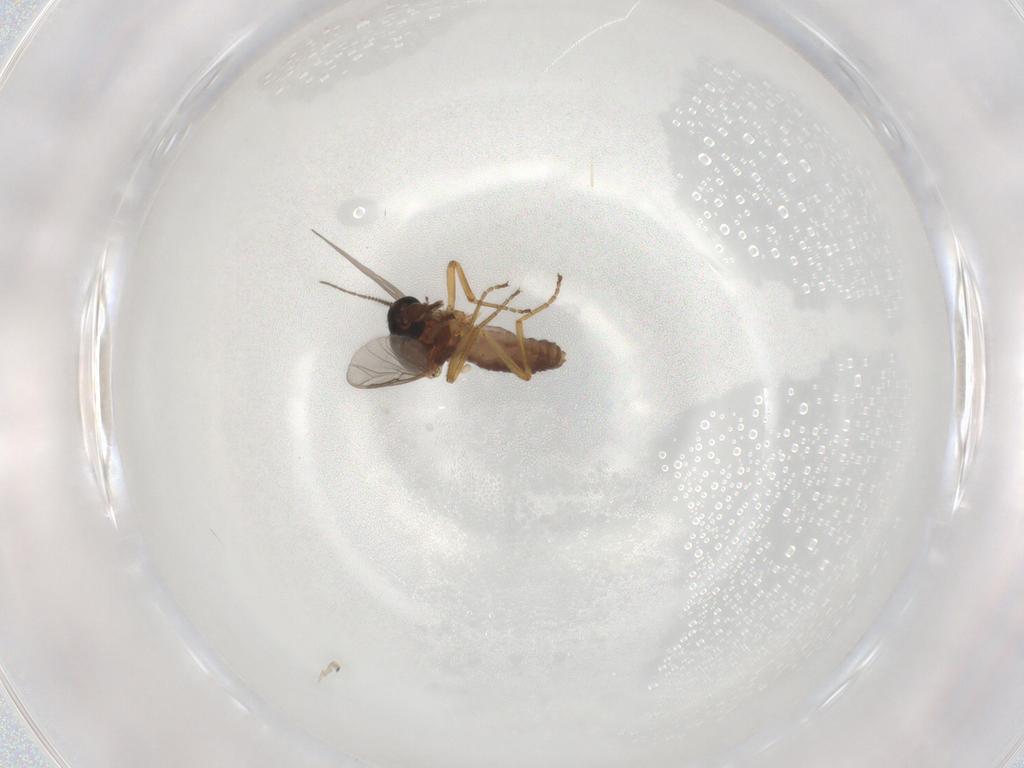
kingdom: Animalia
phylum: Arthropoda
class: Insecta
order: Diptera
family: Ceratopogonidae
